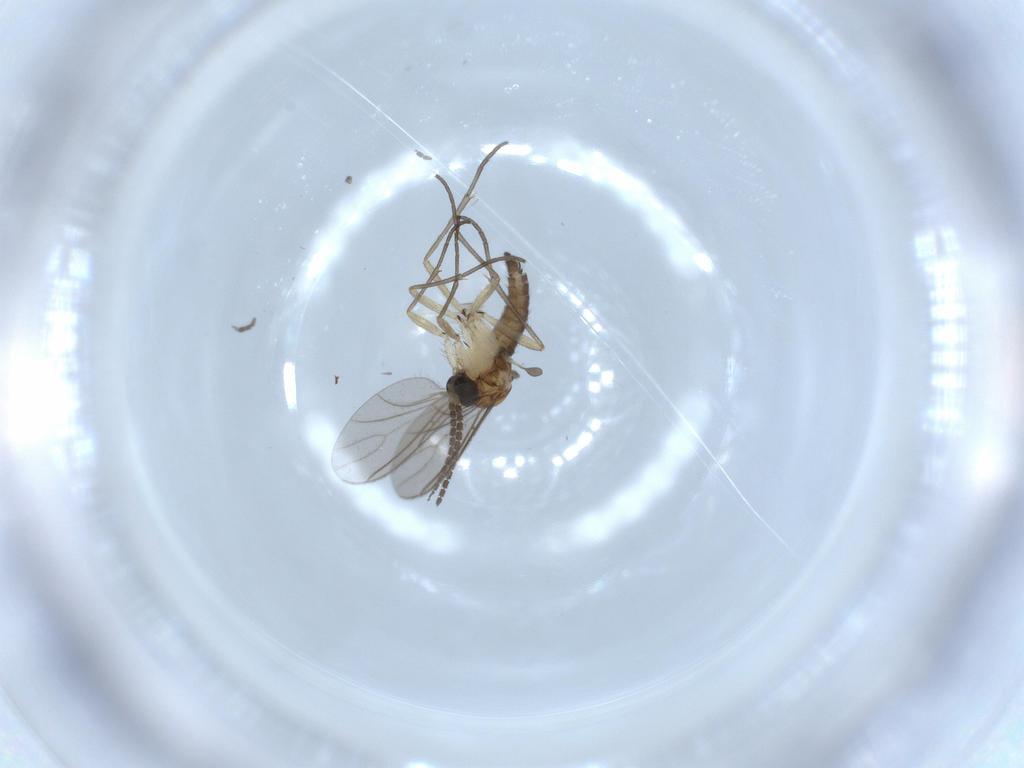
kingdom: Animalia
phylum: Arthropoda
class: Insecta
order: Diptera
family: Sciaridae
